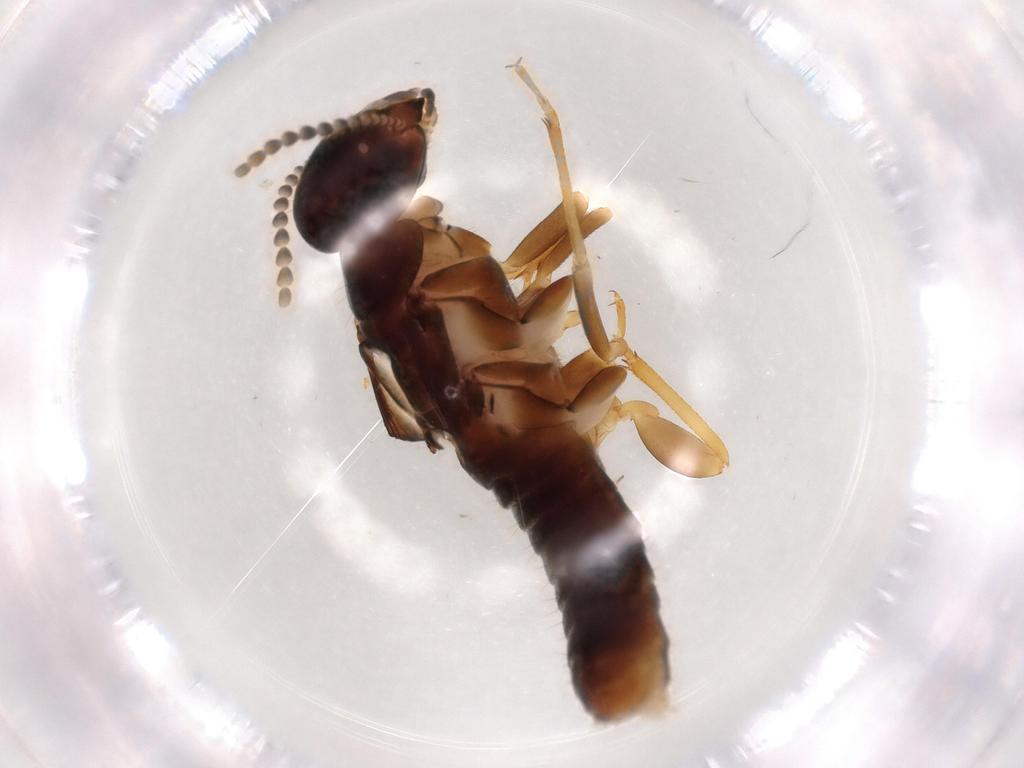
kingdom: Animalia
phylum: Arthropoda
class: Insecta
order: Blattodea
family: Kalotermitidae
